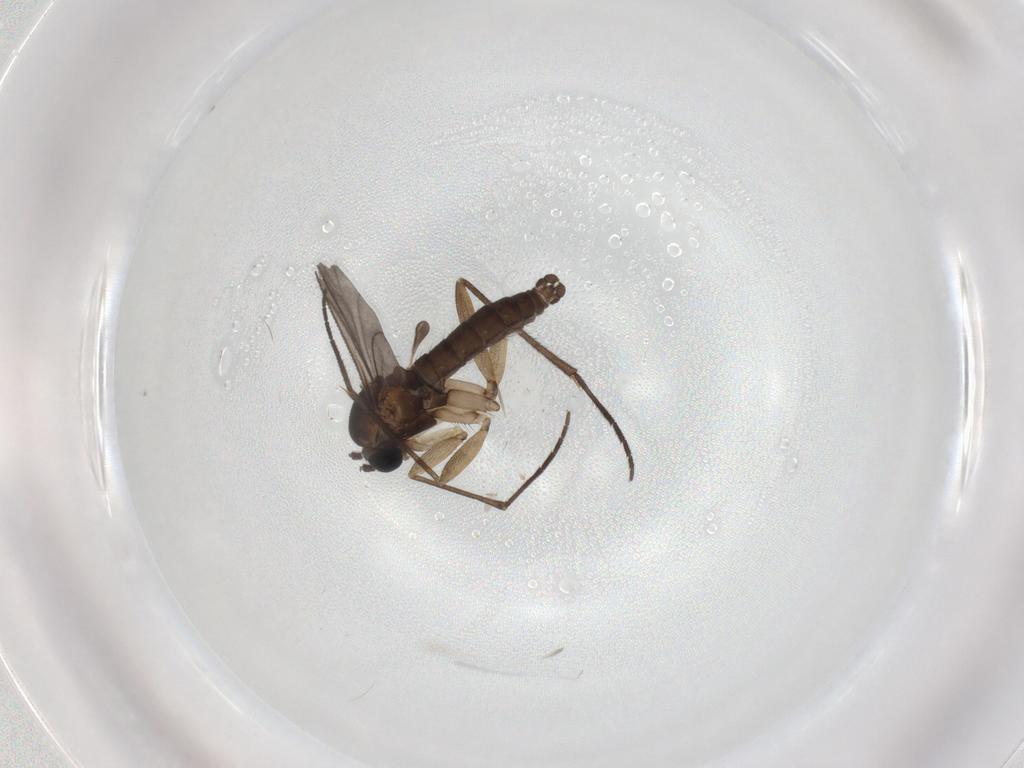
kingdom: Animalia
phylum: Arthropoda
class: Insecta
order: Diptera
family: Sciaridae
